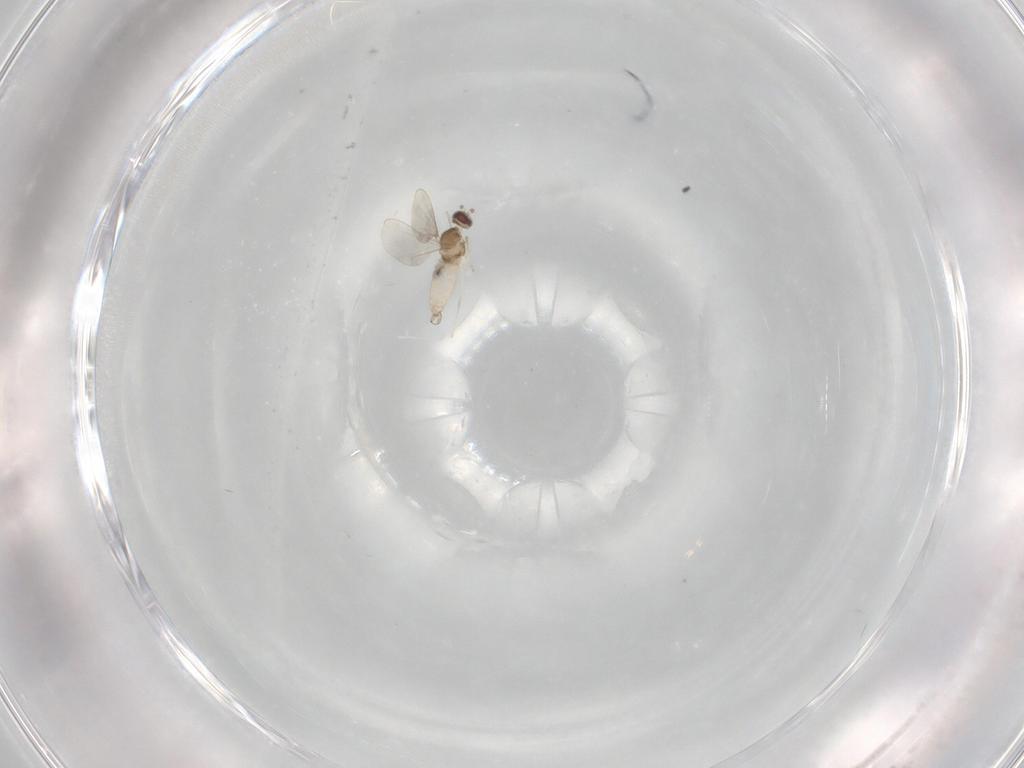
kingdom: Animalia
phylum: Arthropoda
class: Insecta
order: Diptera
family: Cecidomyiidae
